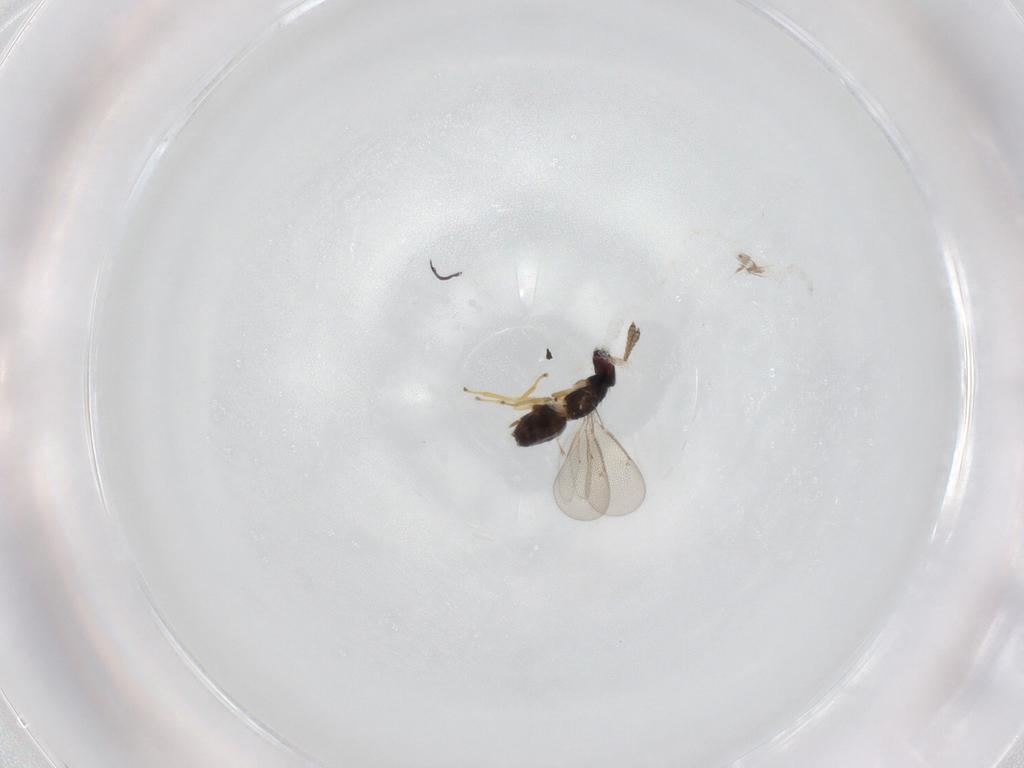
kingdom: Animalia
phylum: Arthropoda
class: Insecta
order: Hymenoptera
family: Eulophidae
